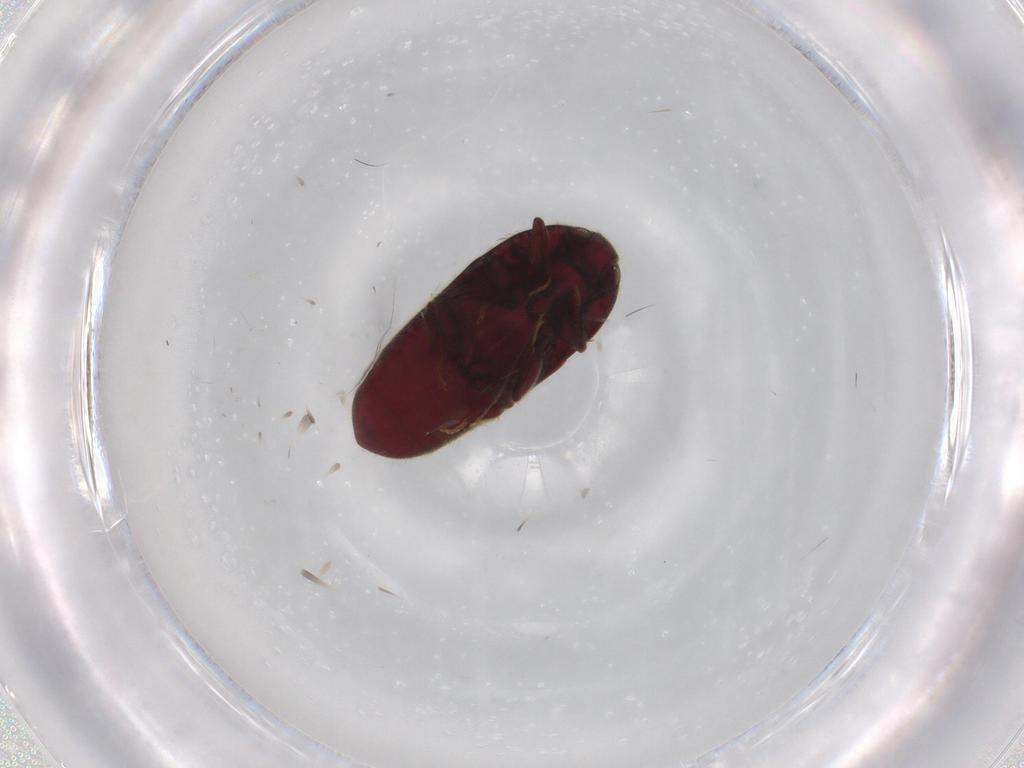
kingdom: Animalia
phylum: Arthropoda
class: Insecta
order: Coleoptera
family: Throscidae
